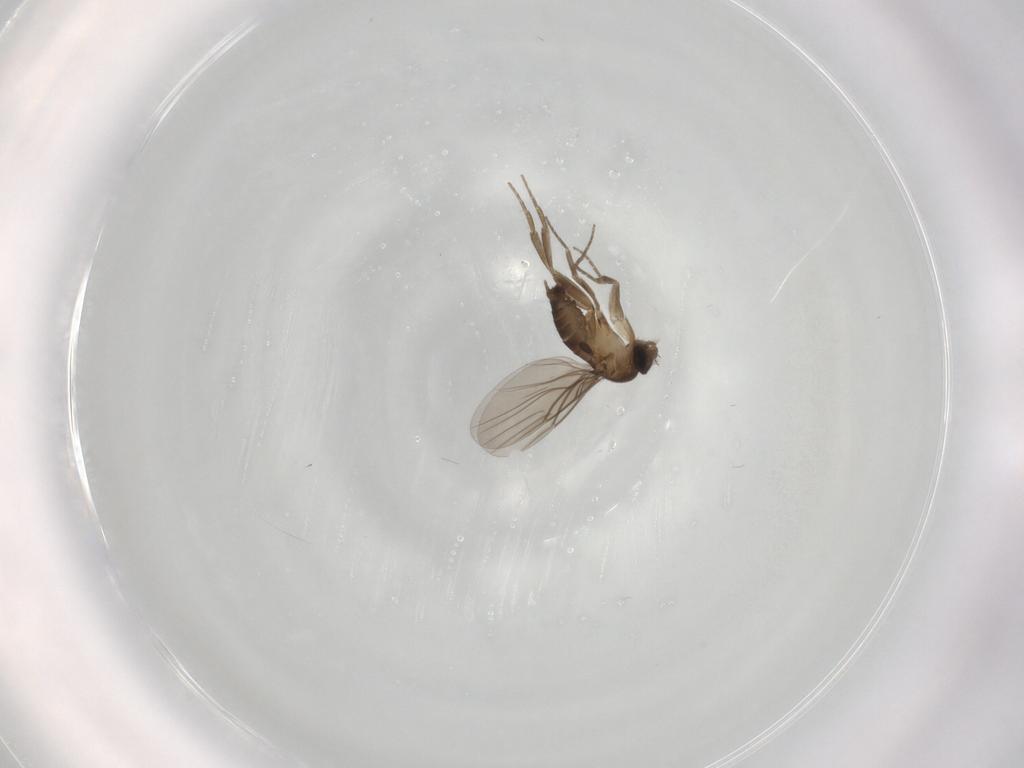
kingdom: Animalia
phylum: Arthropoda
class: Insecta
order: Diptera
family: Phoridae
